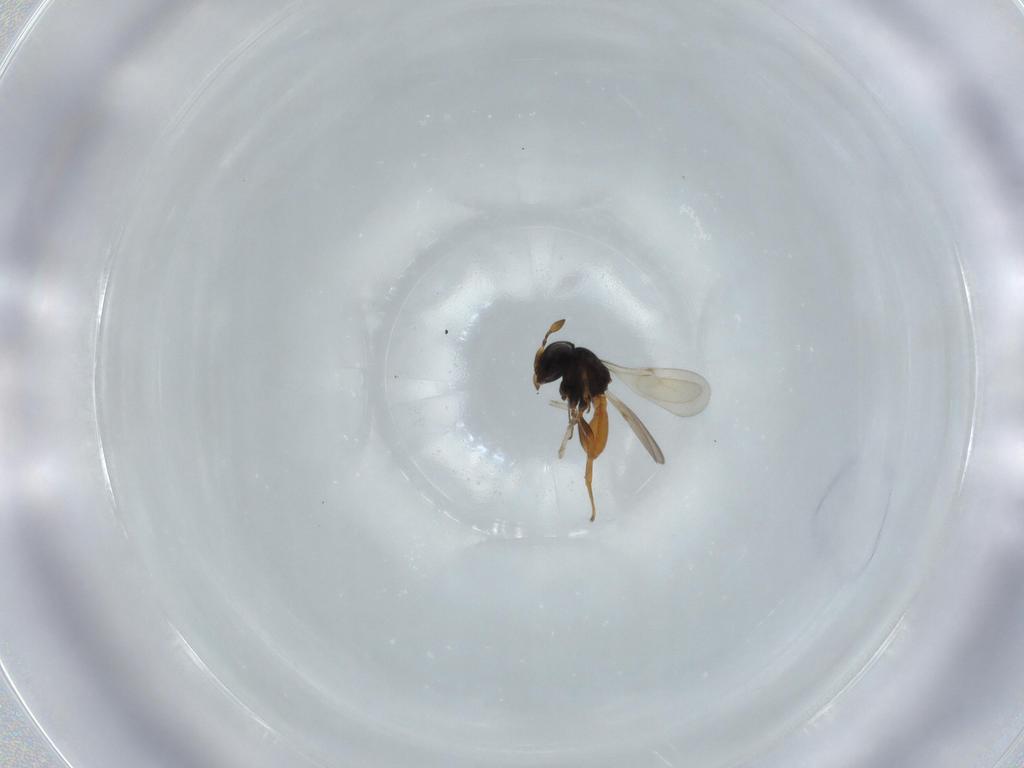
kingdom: Animalia
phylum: Arthropoda
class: Insecta
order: Hymenoptera
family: Scelionidae
